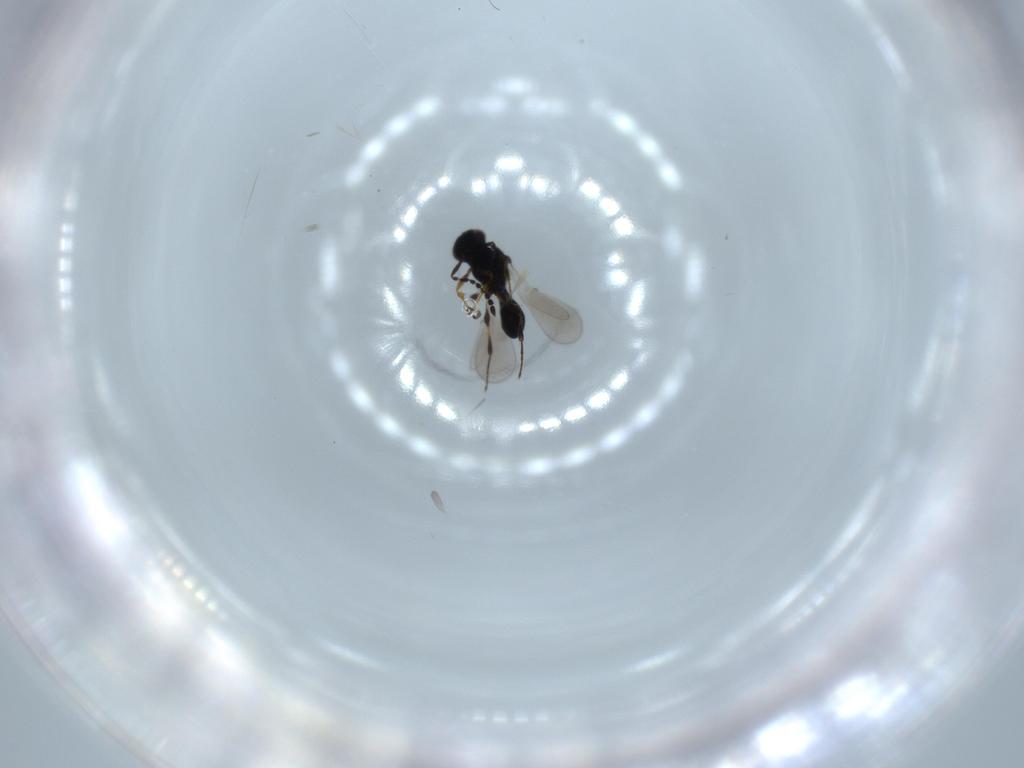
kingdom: Animalia
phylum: Arthropoda
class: Insecta
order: Hymenoptera
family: Platygastridae
